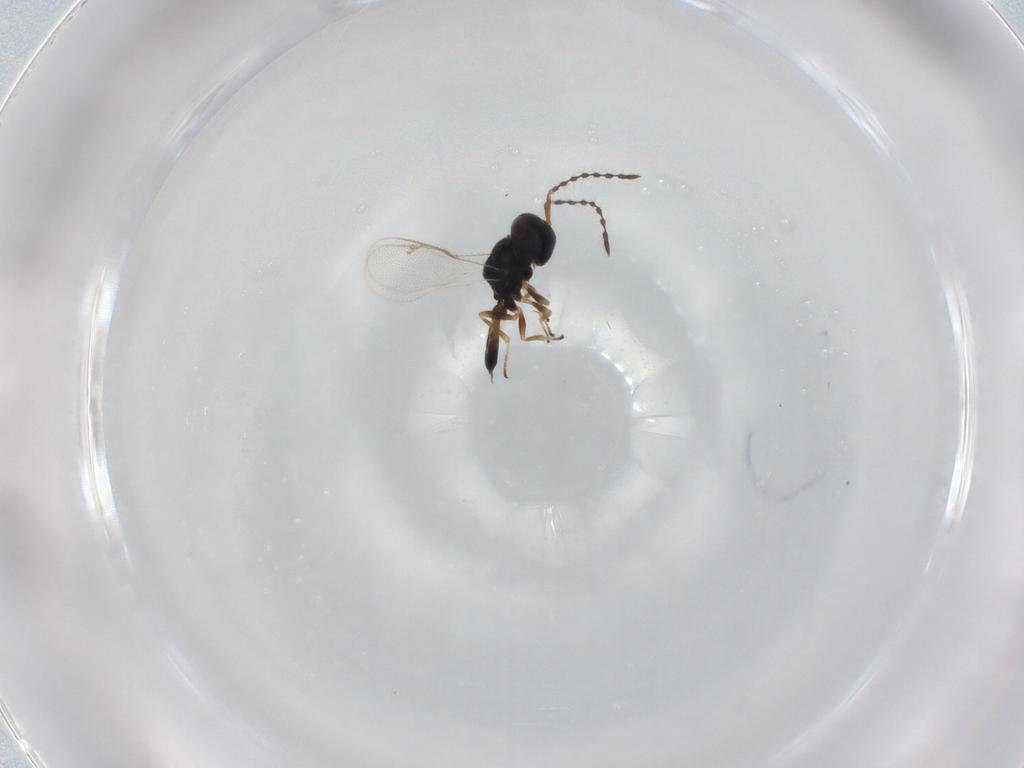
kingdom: Animalia
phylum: Arthropoda
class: Insecta
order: Hymenoptera
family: Pteromalidae
